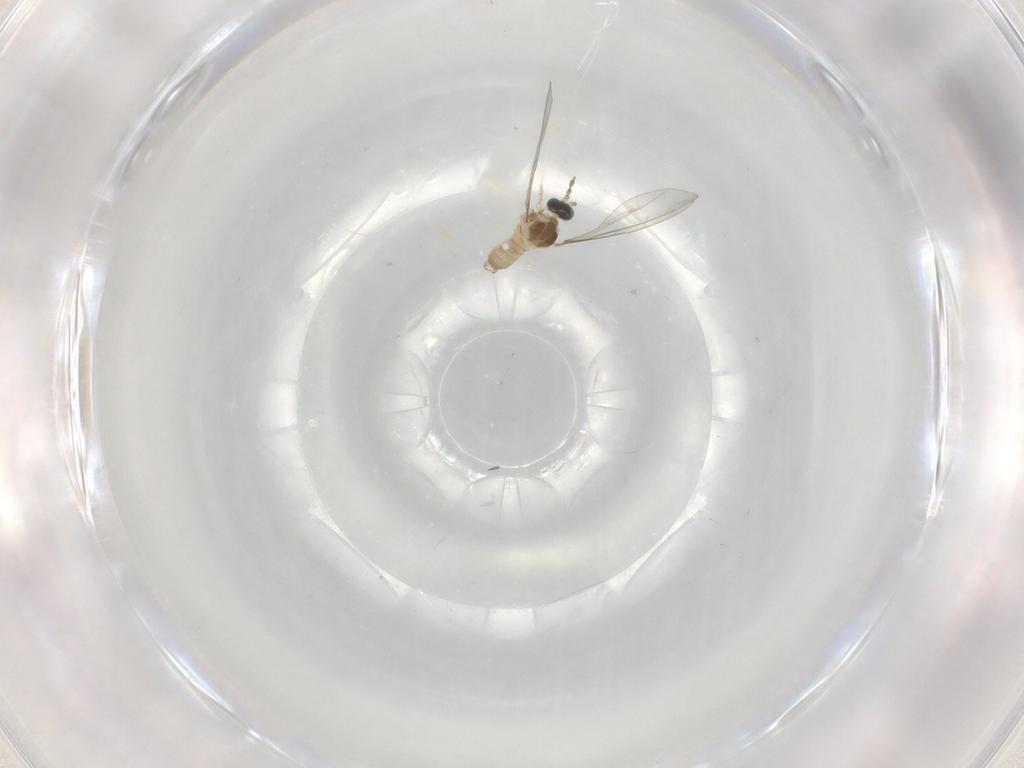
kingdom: Animalia
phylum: Arthropoda
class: Insecta
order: Diptera
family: Cecidomyiidae
